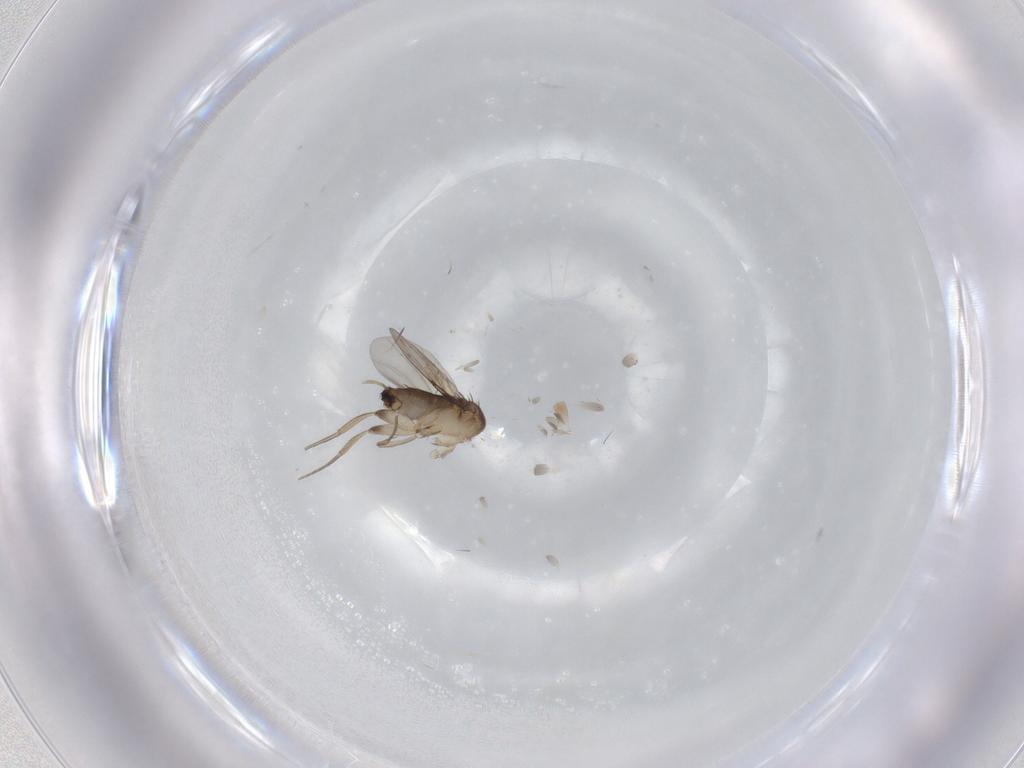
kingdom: Animalia
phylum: Arthropoda
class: Insecta
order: Diptera
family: Phoridae
